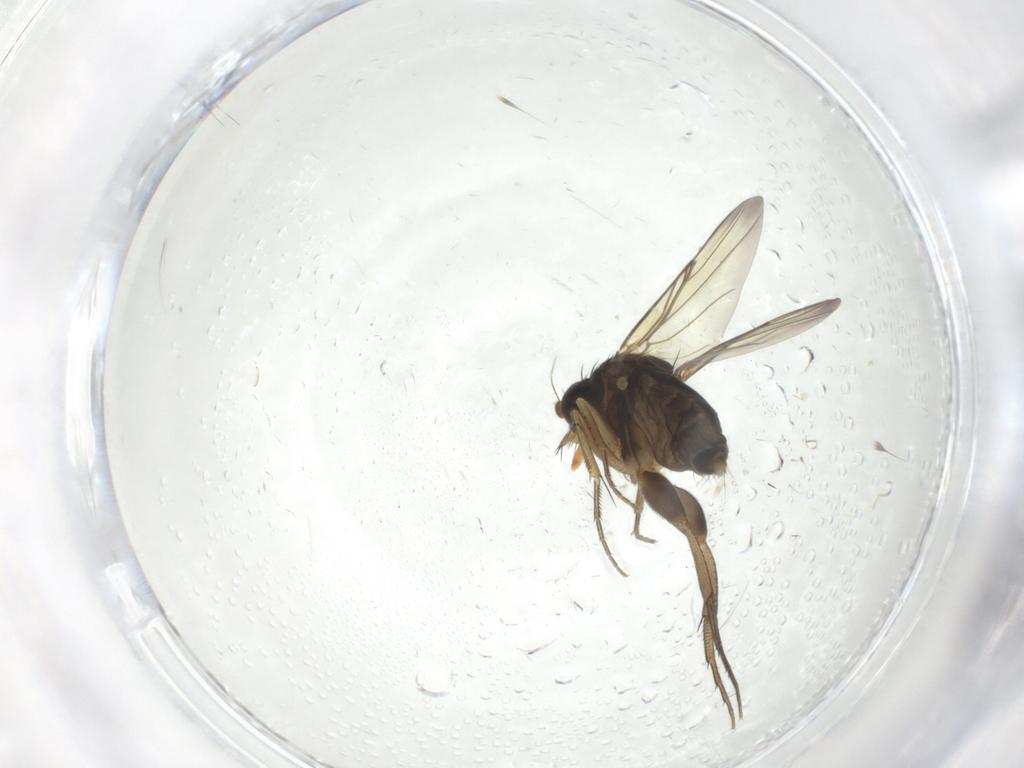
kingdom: Animalia
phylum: Arthropoda
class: Insecta
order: Diptera
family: Phoridae
